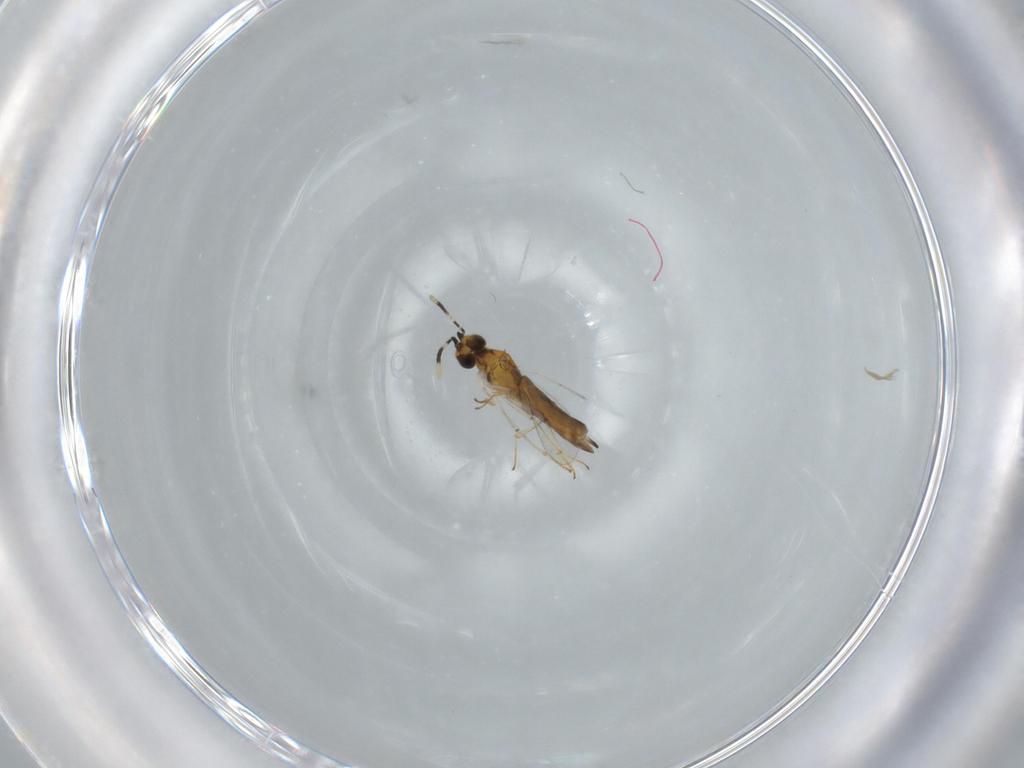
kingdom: Animalia
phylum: Arthropoda
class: Insecta
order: Hymenoptera
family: Diapriidae
